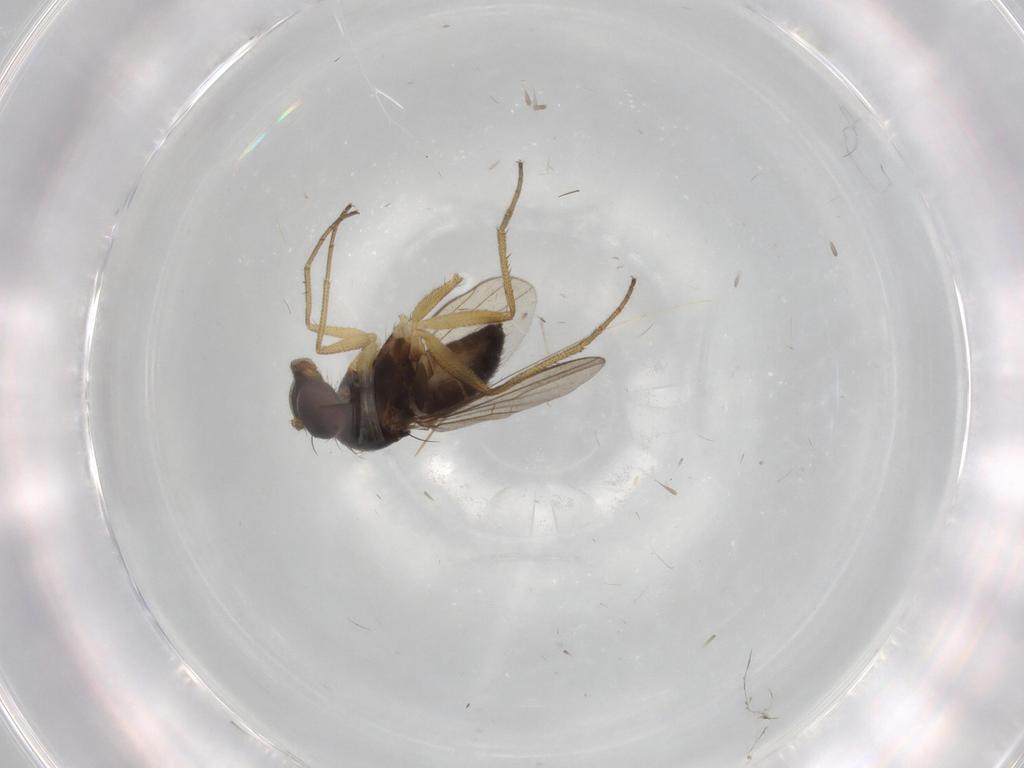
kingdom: Animalia
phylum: Arthropoda
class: Insecta
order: Diptera
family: Dolichopodidae
